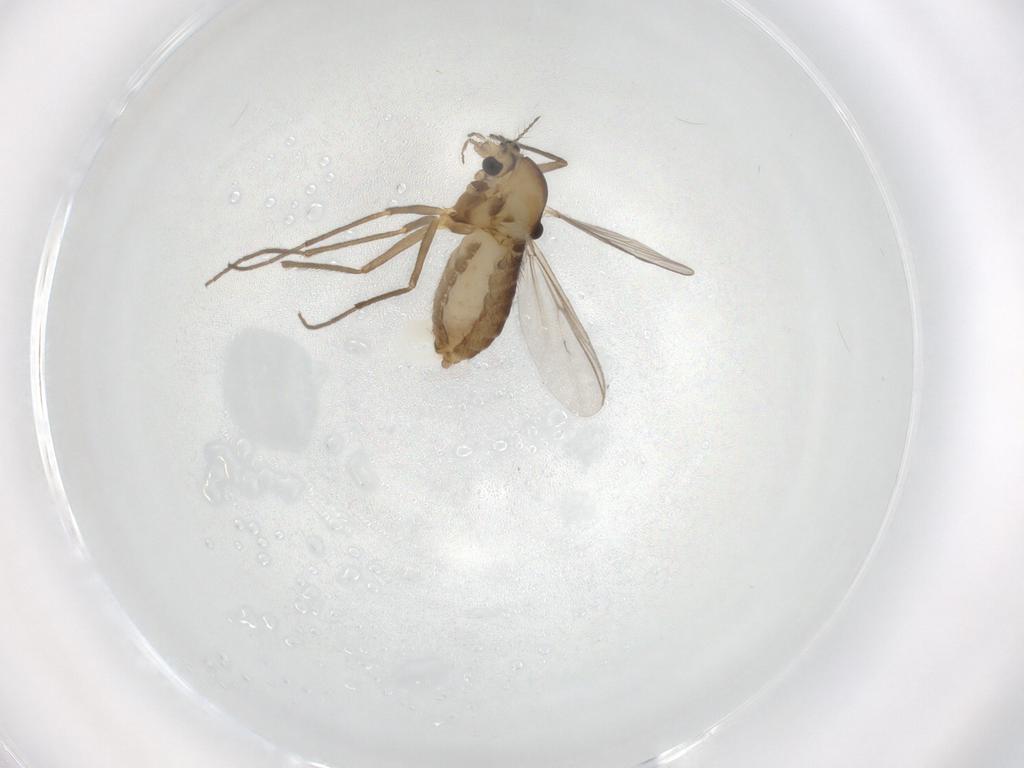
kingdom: Animalia
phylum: Arthropoda
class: Insecta
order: Diptera
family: Chironomidae
